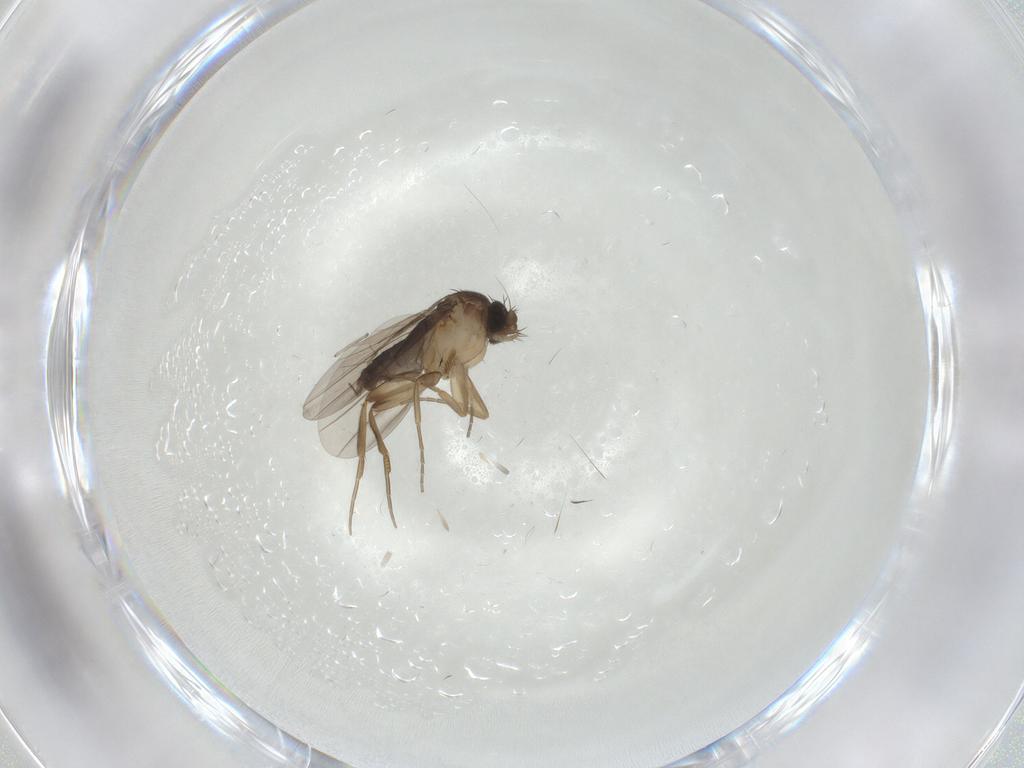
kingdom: Animalia
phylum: Arthropoda
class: Insecta
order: Diptera
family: Chironomidae
